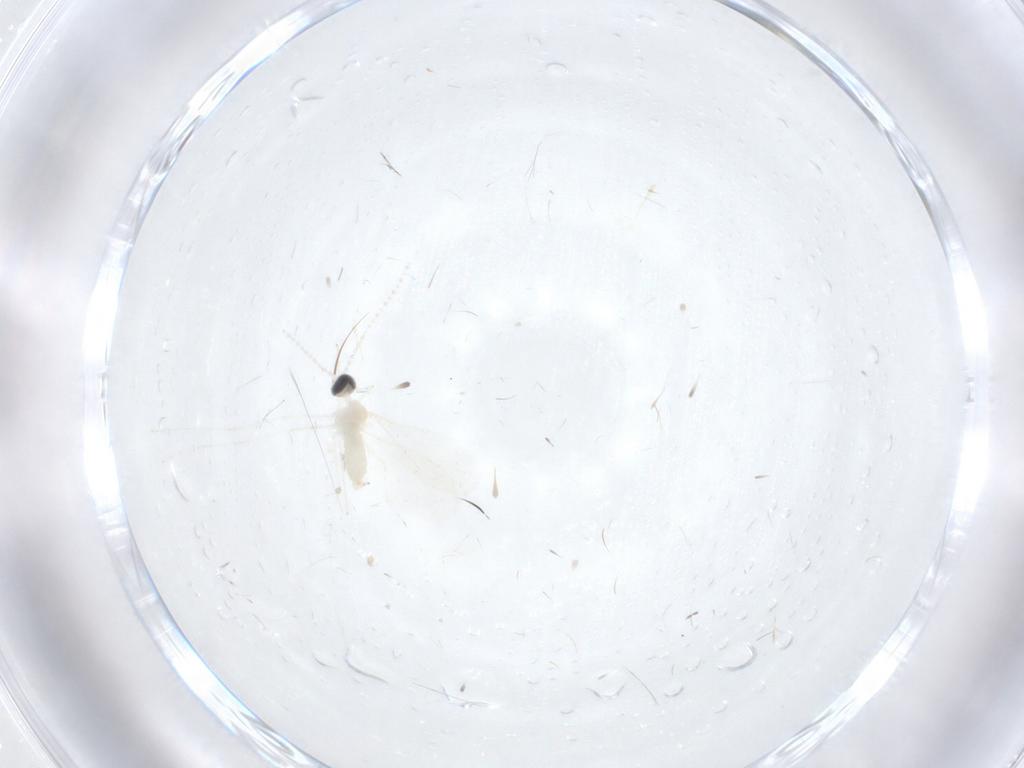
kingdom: Animalia
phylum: Arthropoda
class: Insecta
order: Diptera
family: Cecidomyiidae
